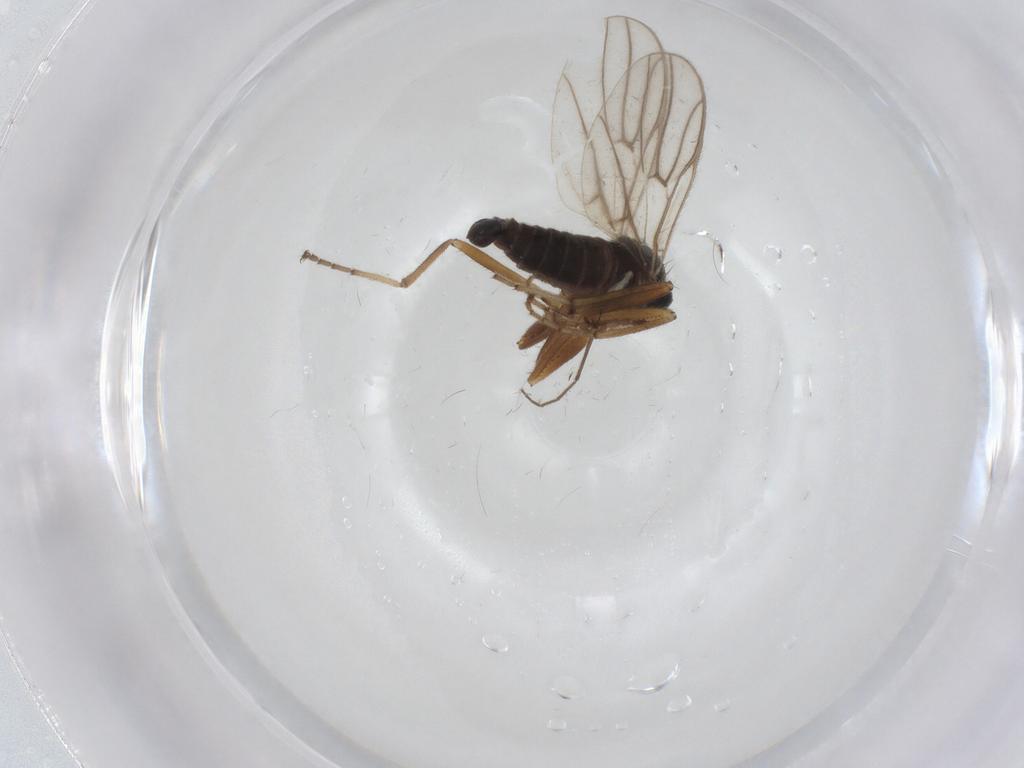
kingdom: Animalia
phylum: Arthropoda
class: Insecta
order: Diptera
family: Hybotidae
